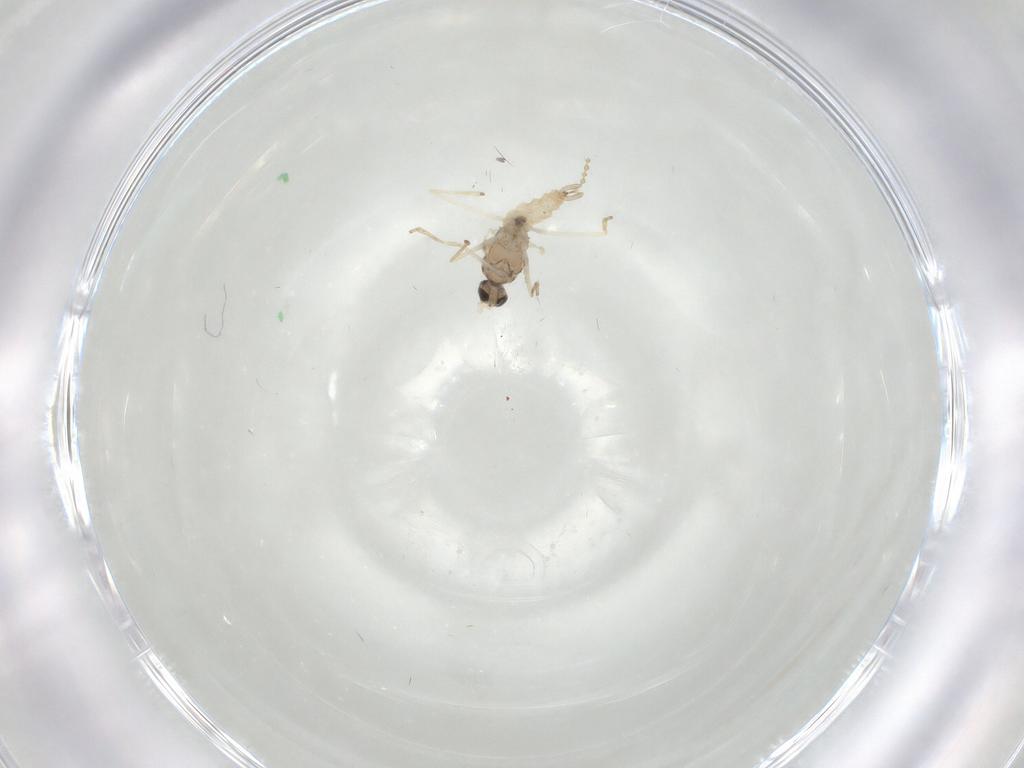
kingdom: Animalia
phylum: Arthropoda
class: Insecta
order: Diptera
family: Cecidomyiidae
